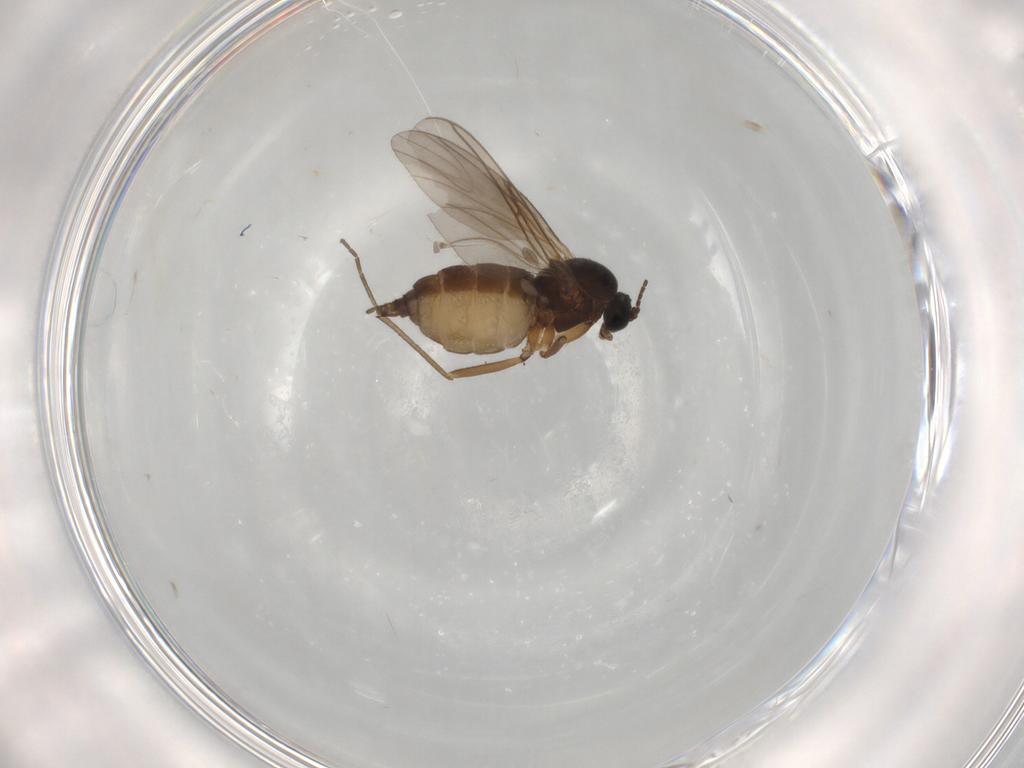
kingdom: Animalia
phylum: Arthropoda
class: Insecta
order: Diptera
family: Sciaridae
